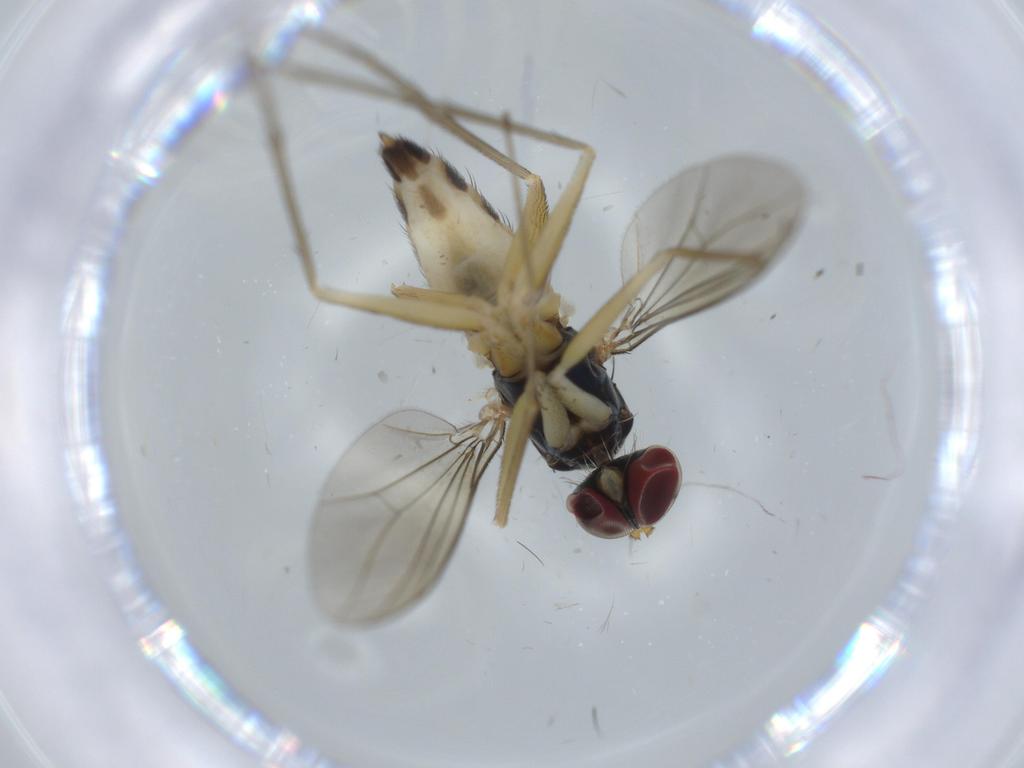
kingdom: Animalia
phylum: Arthropoda
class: Insecta
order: Diptera
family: Dolichopodidae
